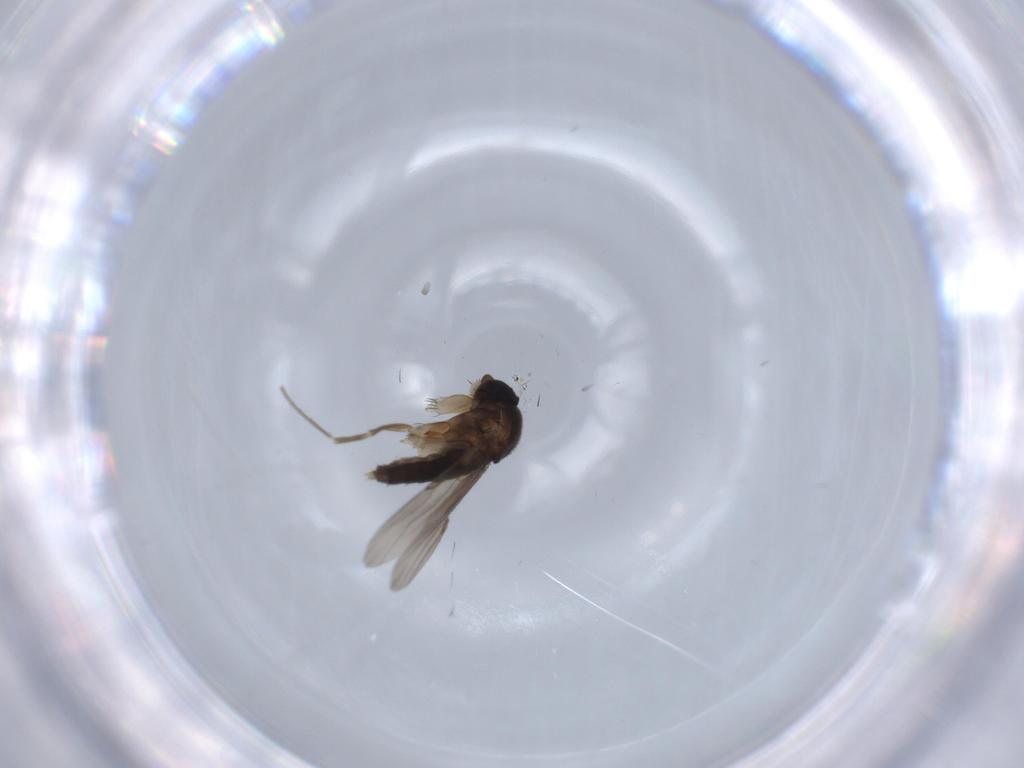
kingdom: Animalia
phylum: Arthropoda
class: Insecta
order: Diptera
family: Phoridae
